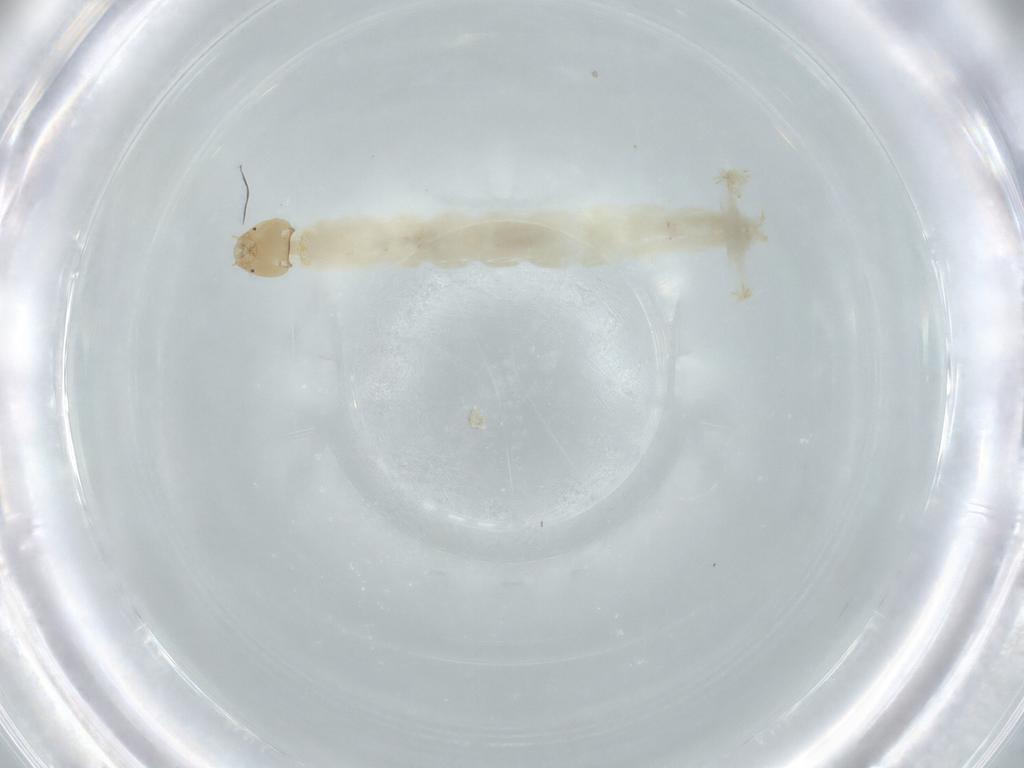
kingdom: Animalia
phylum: Arthropoda
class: Insecta
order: Diptera
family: Chironomidae
